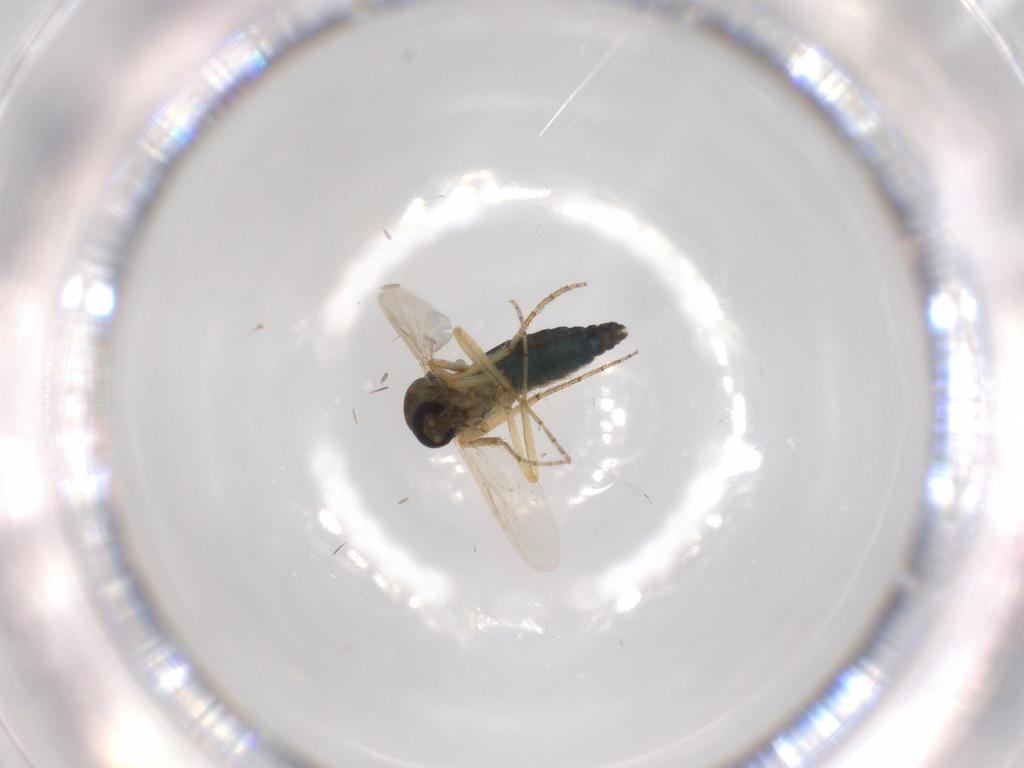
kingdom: Animalia
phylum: Arthropoda
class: Insecta
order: Diptera
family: Ceratopogonidae
